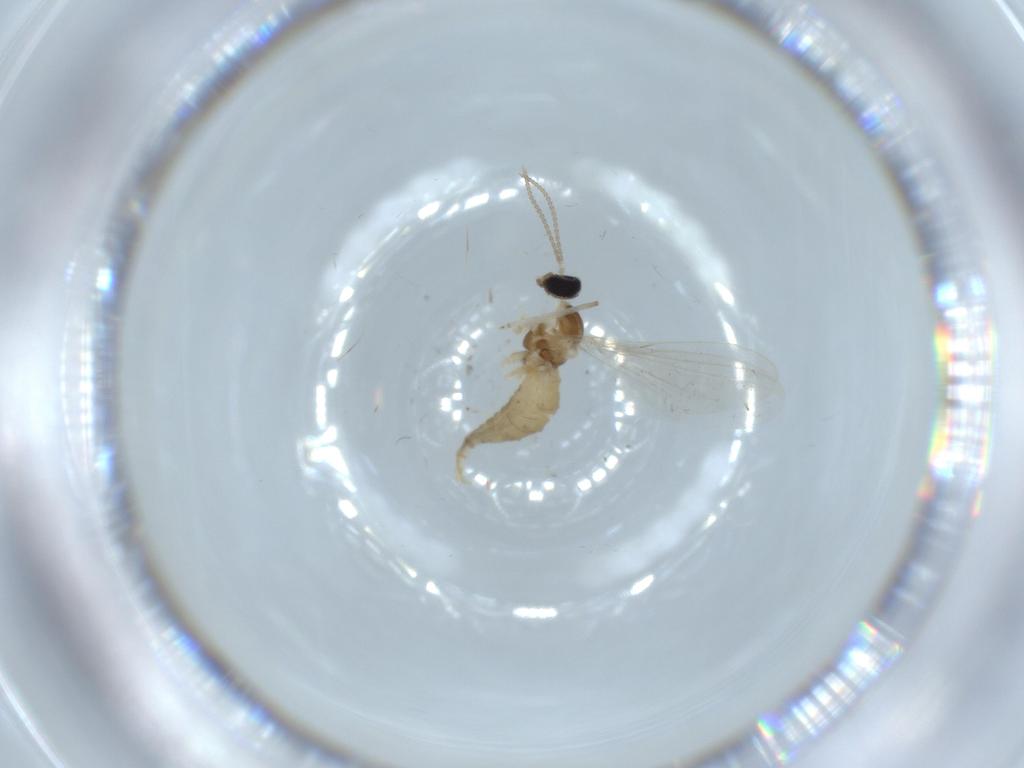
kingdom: Animalia
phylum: Arthropoda
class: Insecta
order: Diptera
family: Cecidomyiidae
